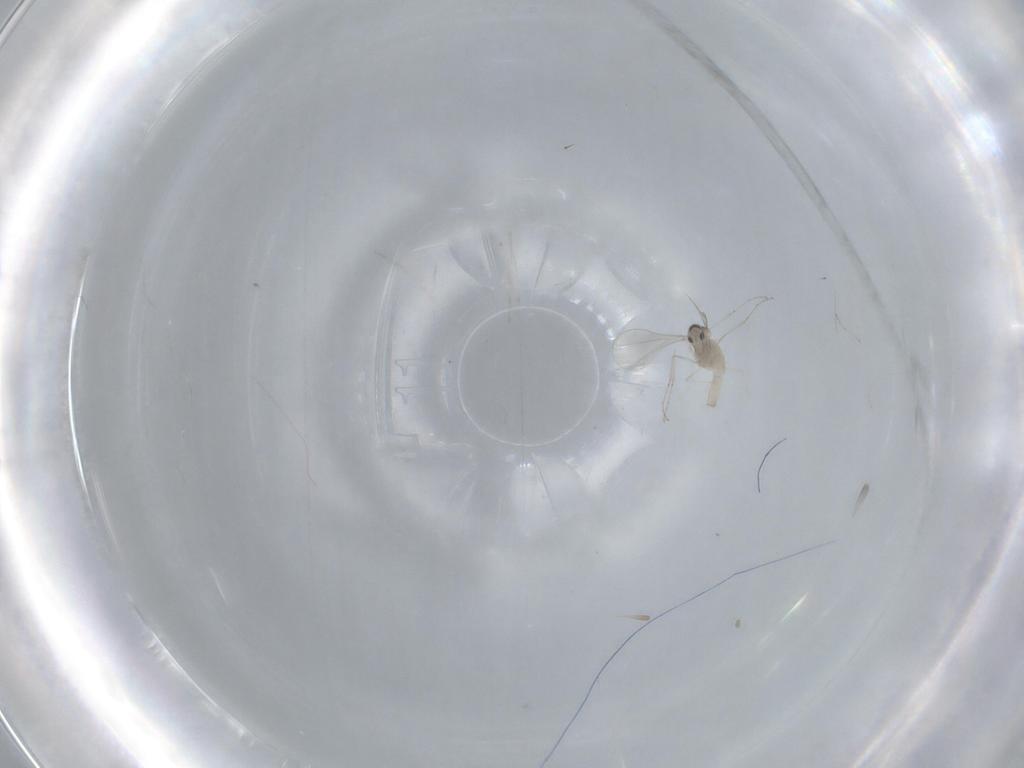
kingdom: Animalia
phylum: Arthropoda
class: Insecta
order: Diptera
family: Cecidomyiidae
